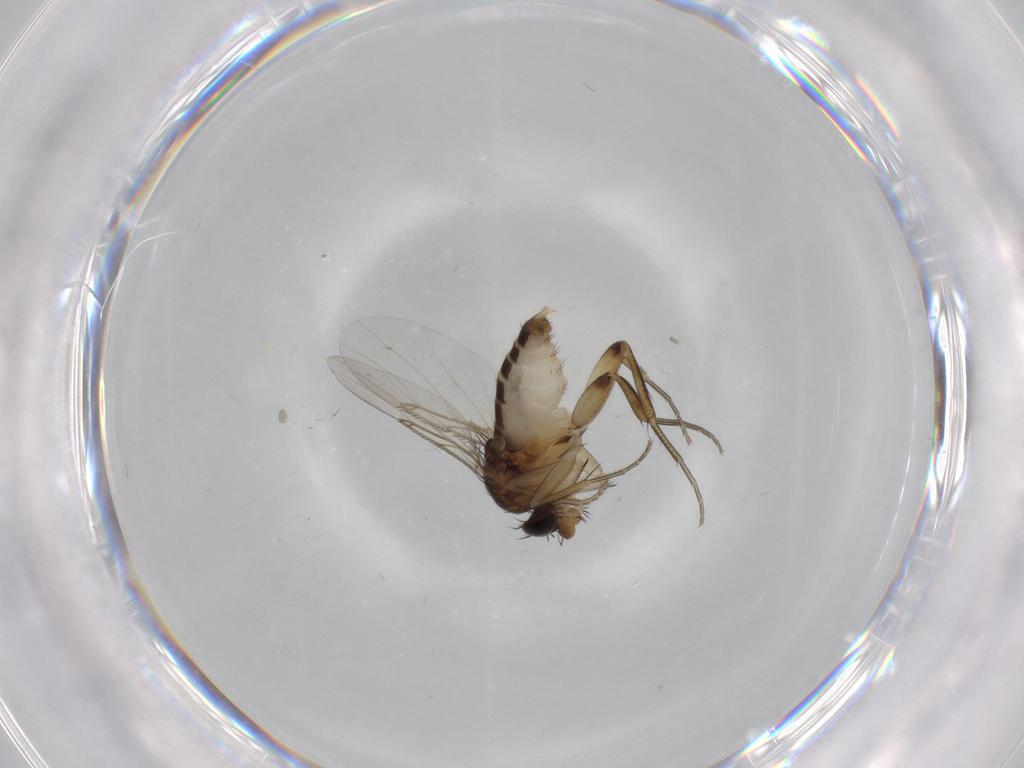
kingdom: Animalia
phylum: Arthropoda
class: Insecta
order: Diptera
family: Phoridae
